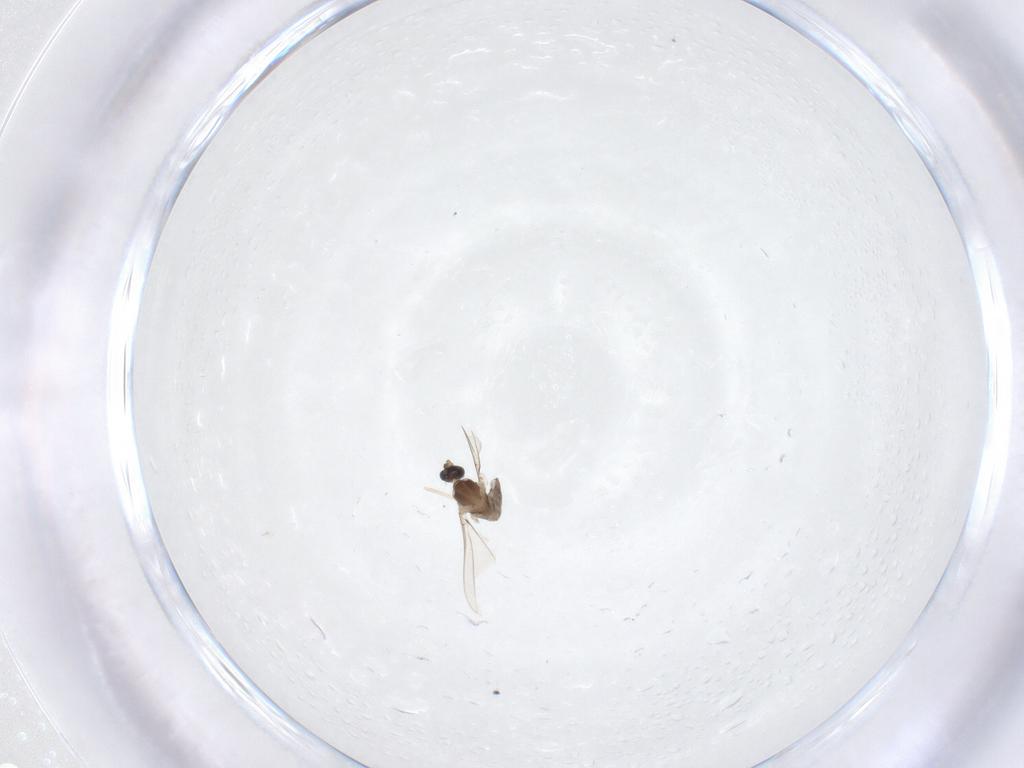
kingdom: Animalia
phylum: Arthropoda
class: Insecta
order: Diptera
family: Cecidomyiidae
